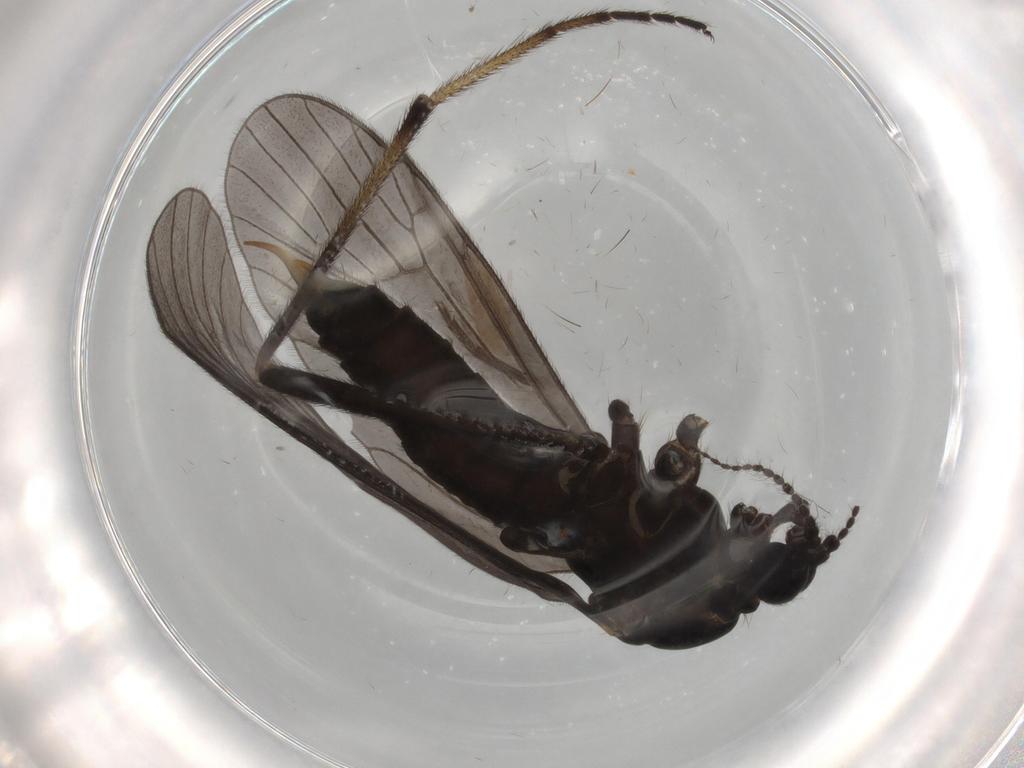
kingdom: Animalia
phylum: Arthropoda
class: Insecta
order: Diptera
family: Limoniidae
